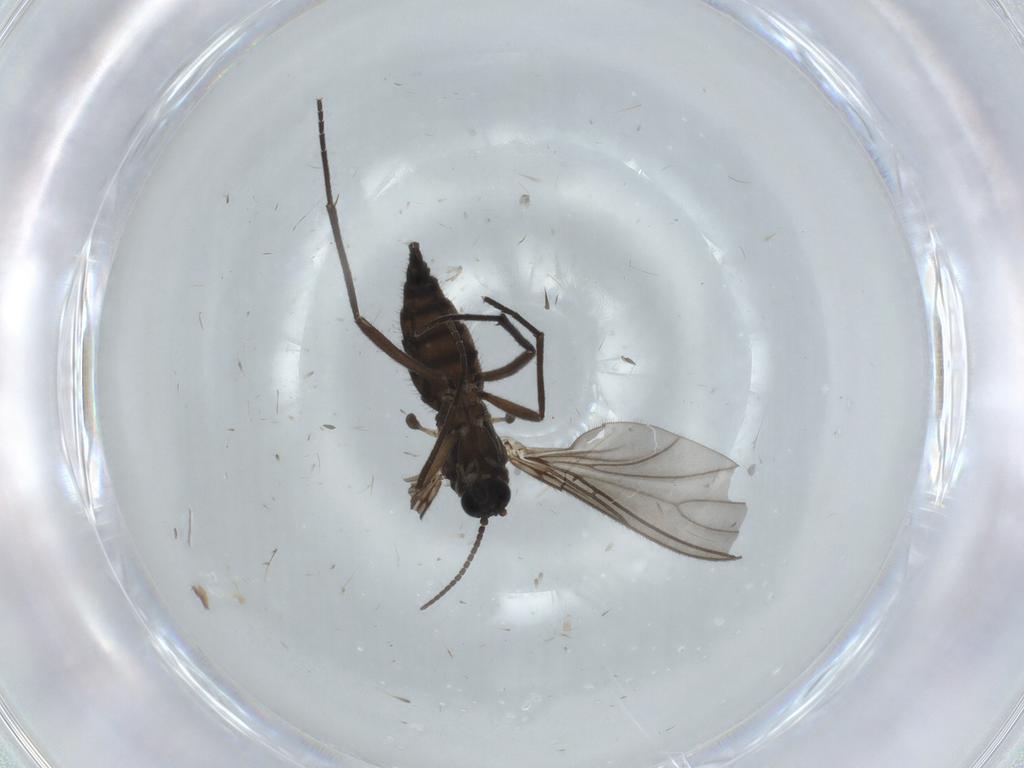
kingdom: Animalia
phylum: Arthropoda
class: Insecta
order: Diptera
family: Sciaridae
